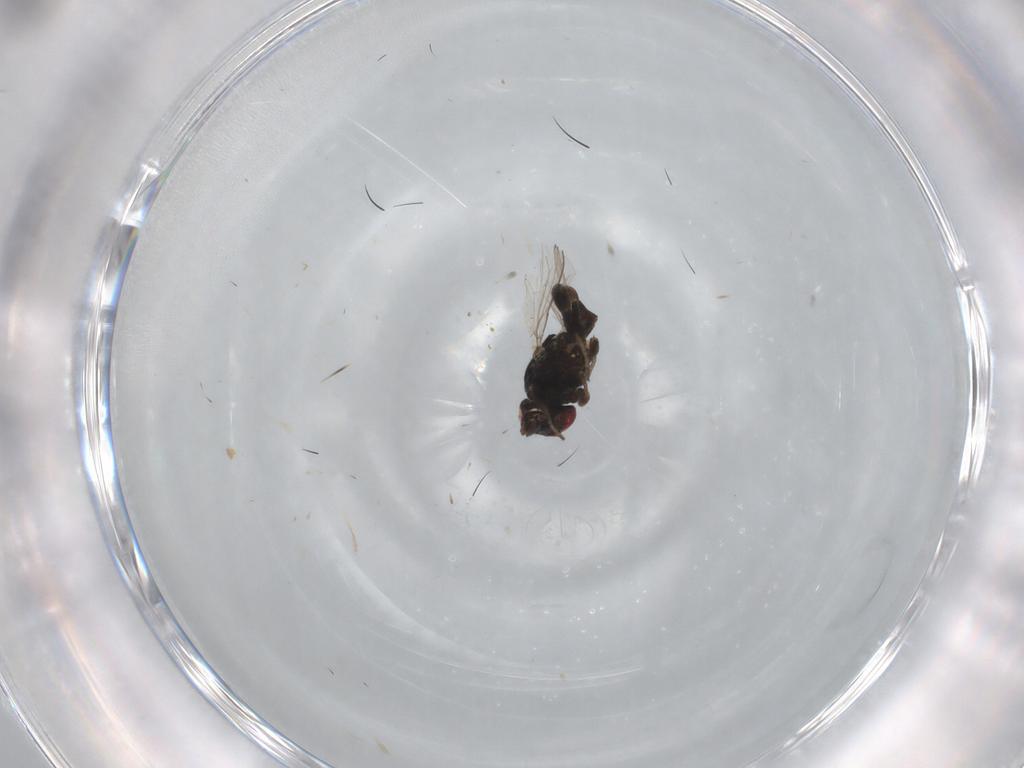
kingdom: Animalia
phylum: Arthropoda
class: Insecta
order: Diptera
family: Milichiidae
